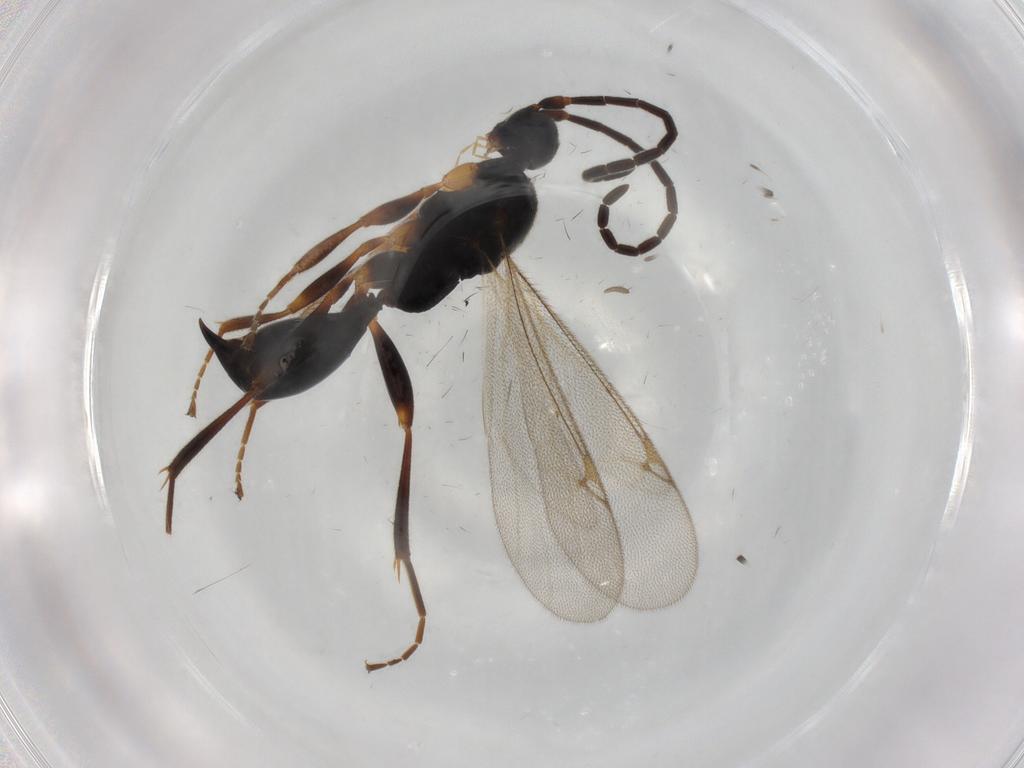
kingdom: Animalia
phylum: Arthropoda
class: Insecta
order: Hymenoptera
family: Proctotrupidae
